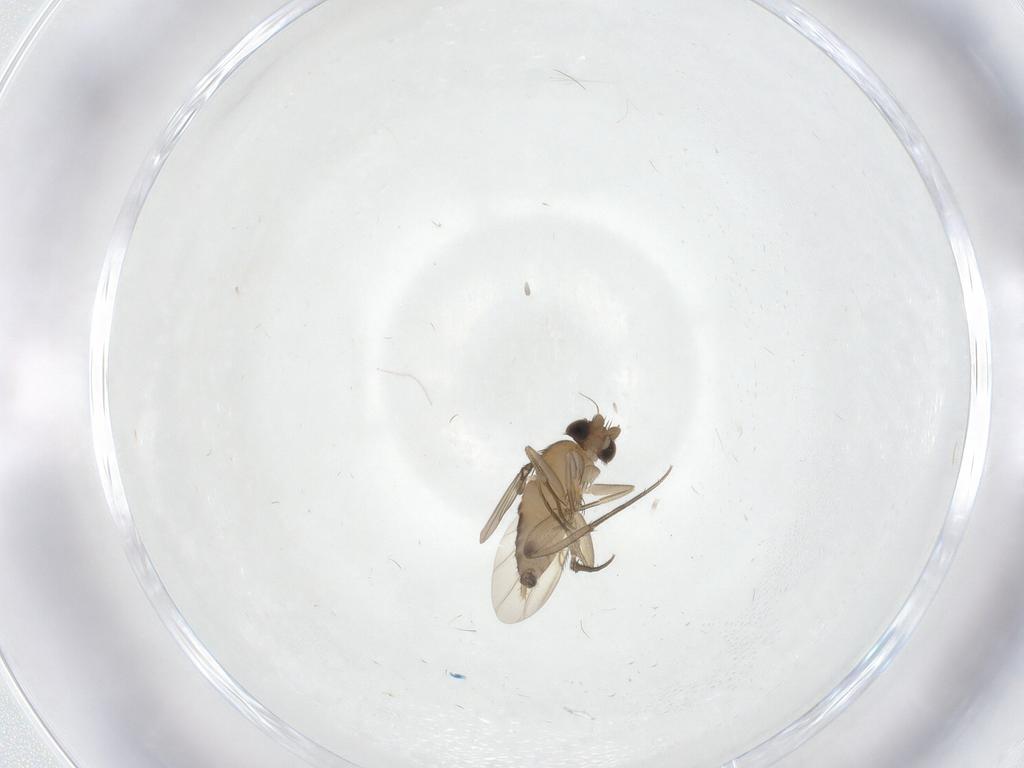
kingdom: Animalia
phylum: Arthropoda
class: Insecta
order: Diptera
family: Phoridae
